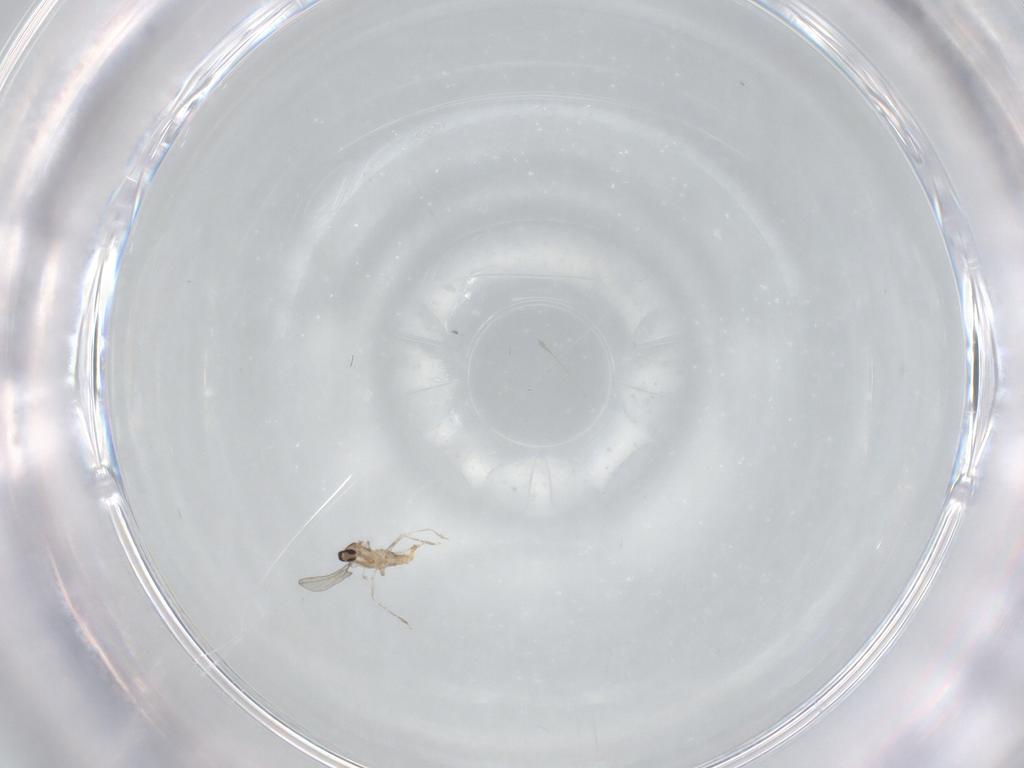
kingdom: Animalia
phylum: Arthropoda
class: Insecta
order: Diptera
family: Cecidomyiidae
